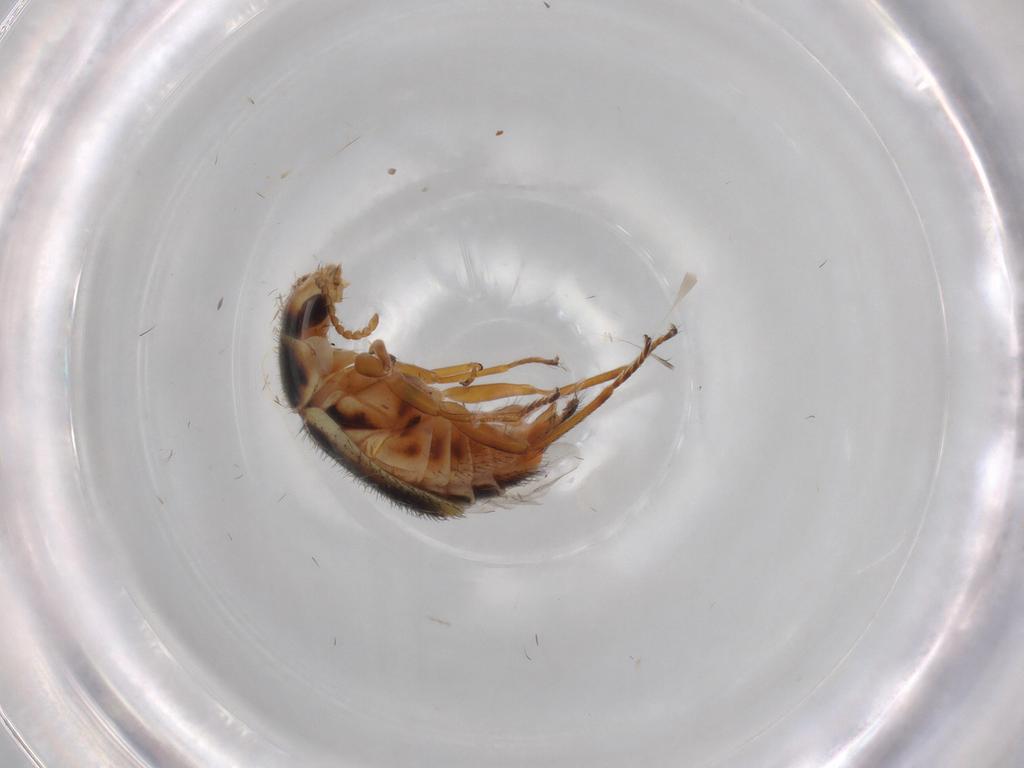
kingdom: Animalia
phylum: Arthropoda
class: Insecta
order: Coleoptera
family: Melyridae
